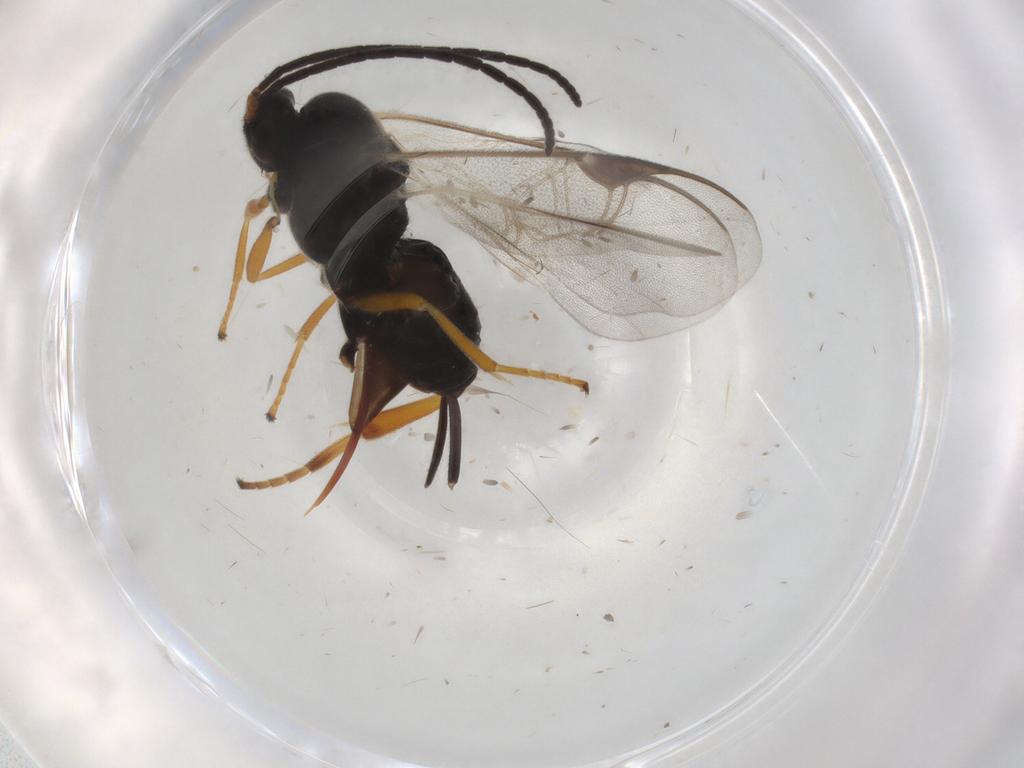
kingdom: Animalia
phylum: Arthropoda
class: Insecta
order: Hymenoptera
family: Braconidae
